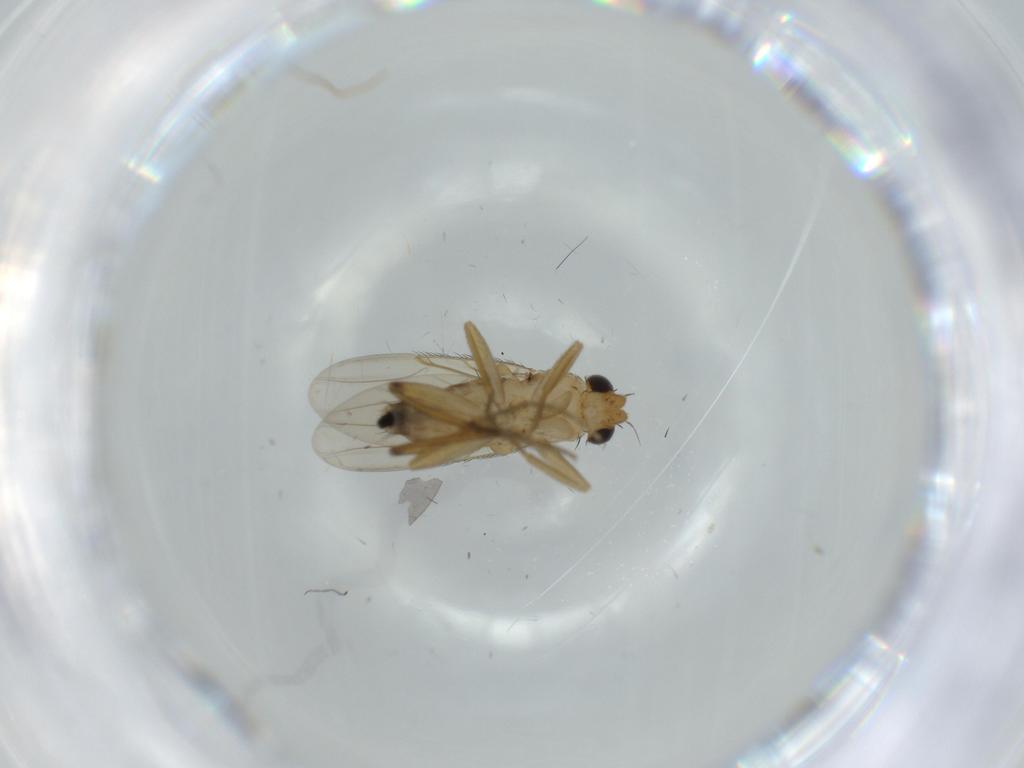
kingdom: Animalia
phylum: Arthropoda
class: Insecta
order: Diptera
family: Phoridae
